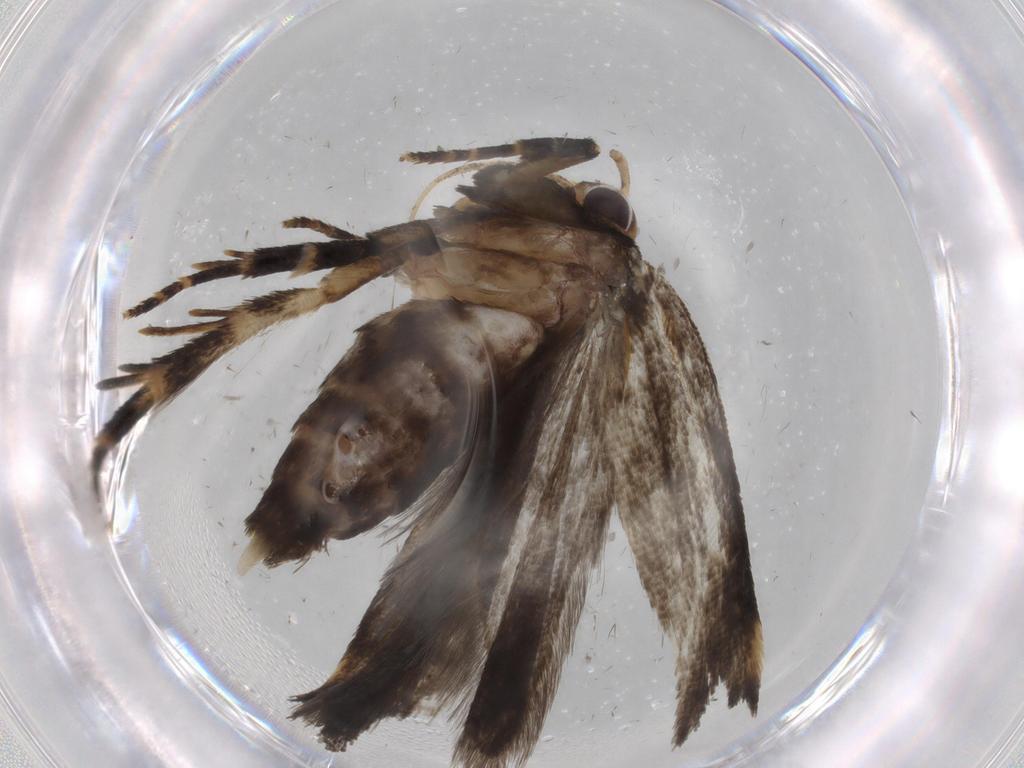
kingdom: Animalia
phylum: Arthropoda
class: Insecta
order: Lepidoptera
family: Gelechiidae
